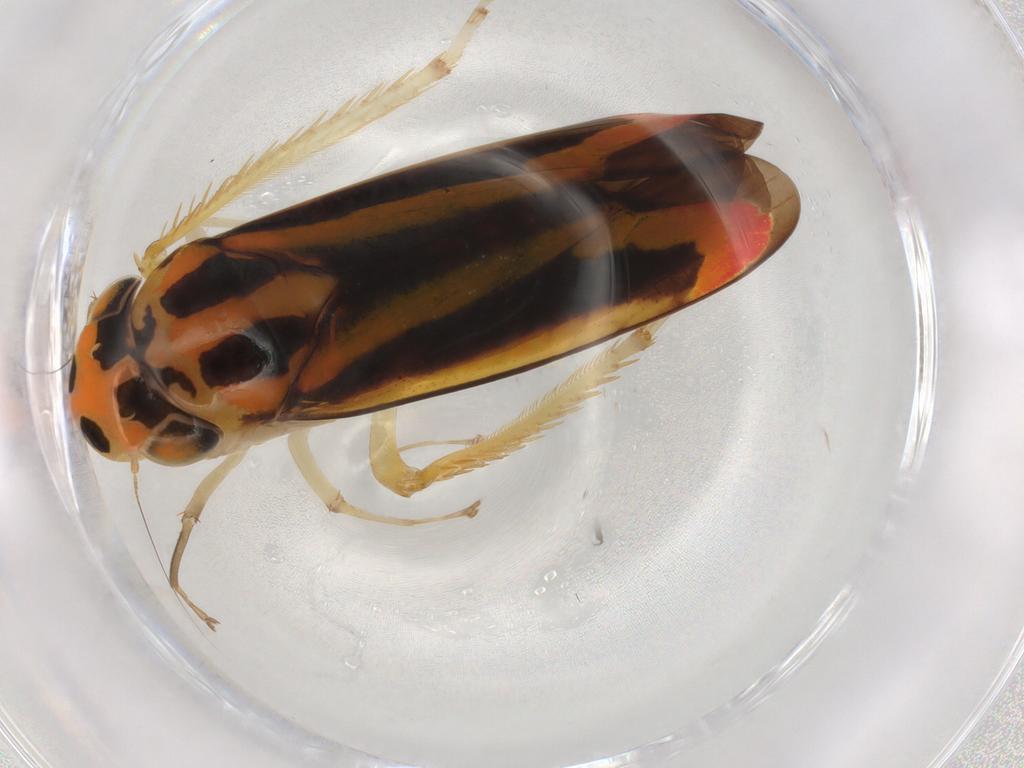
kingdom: Animalia
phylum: Arthropoda
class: Insecta
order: Hemiptera
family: Cicadellidae
